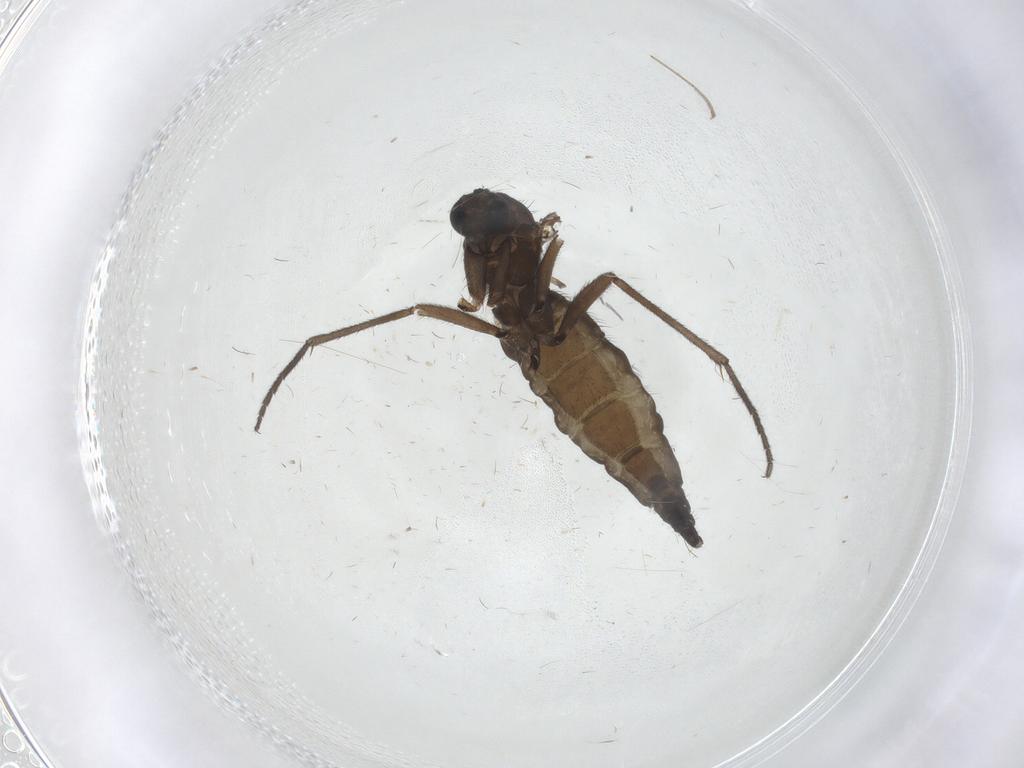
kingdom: Animalia
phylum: Arthropoda
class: Insecta
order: Diptera
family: Sciaridae
